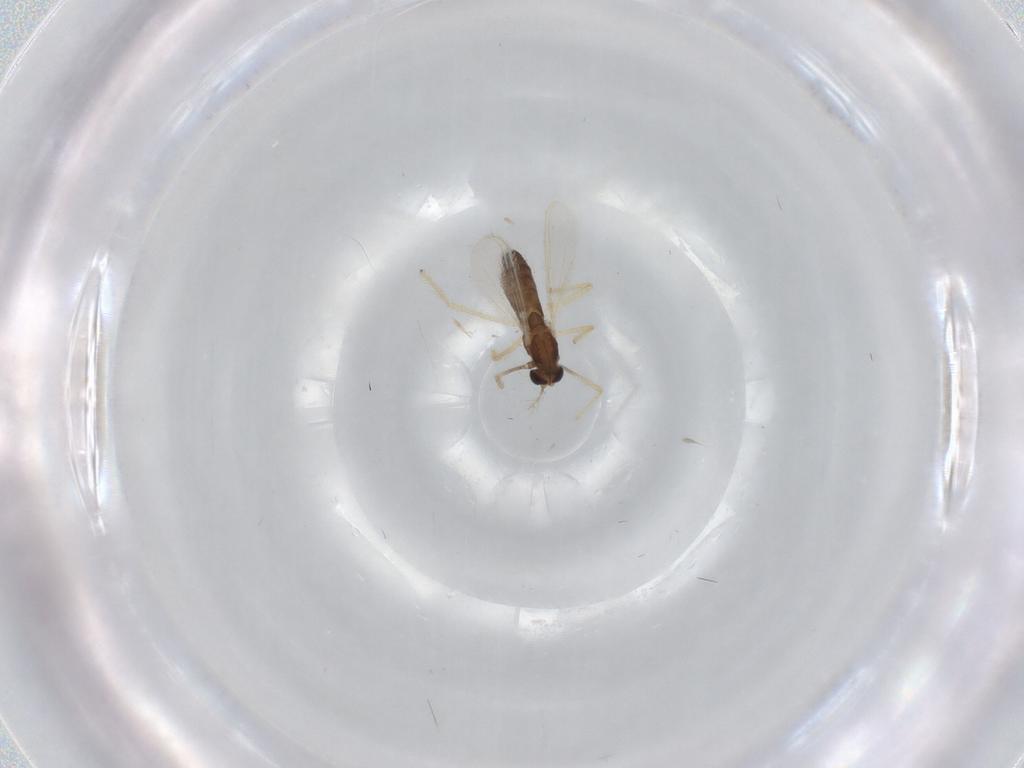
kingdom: Animalia
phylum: Arthropoda
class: Insecta
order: Diptera
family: Chironomidae
